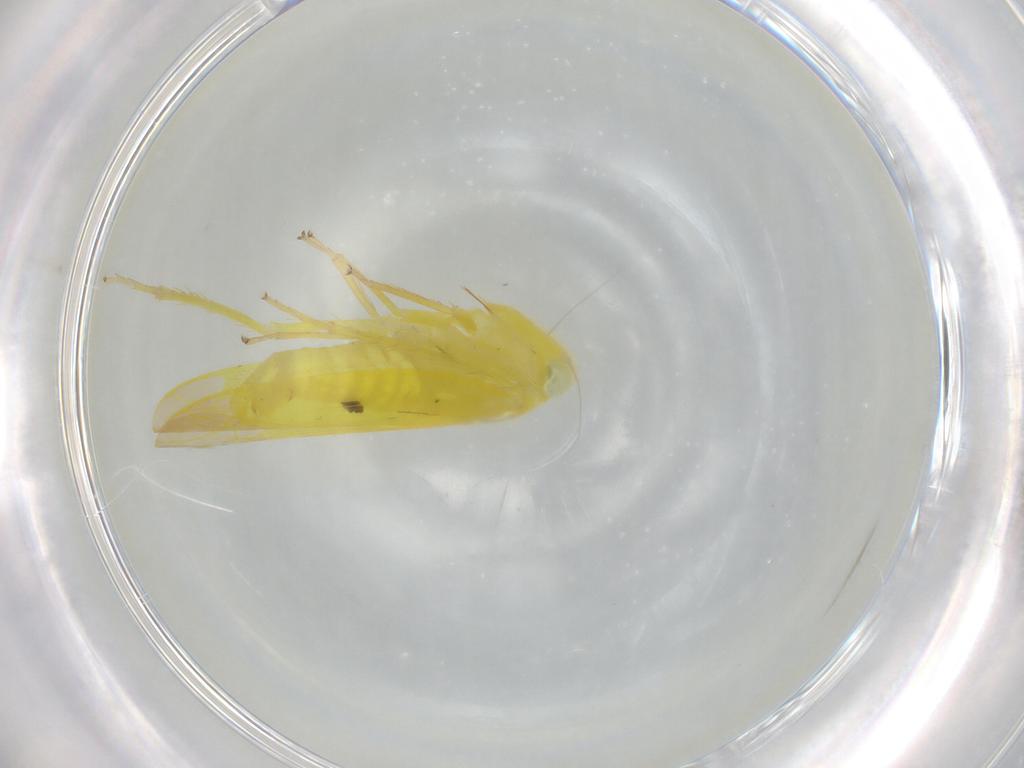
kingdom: Animalia
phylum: Arthropoda
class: Insecta
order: Hemiptera
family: Cicadellidae
